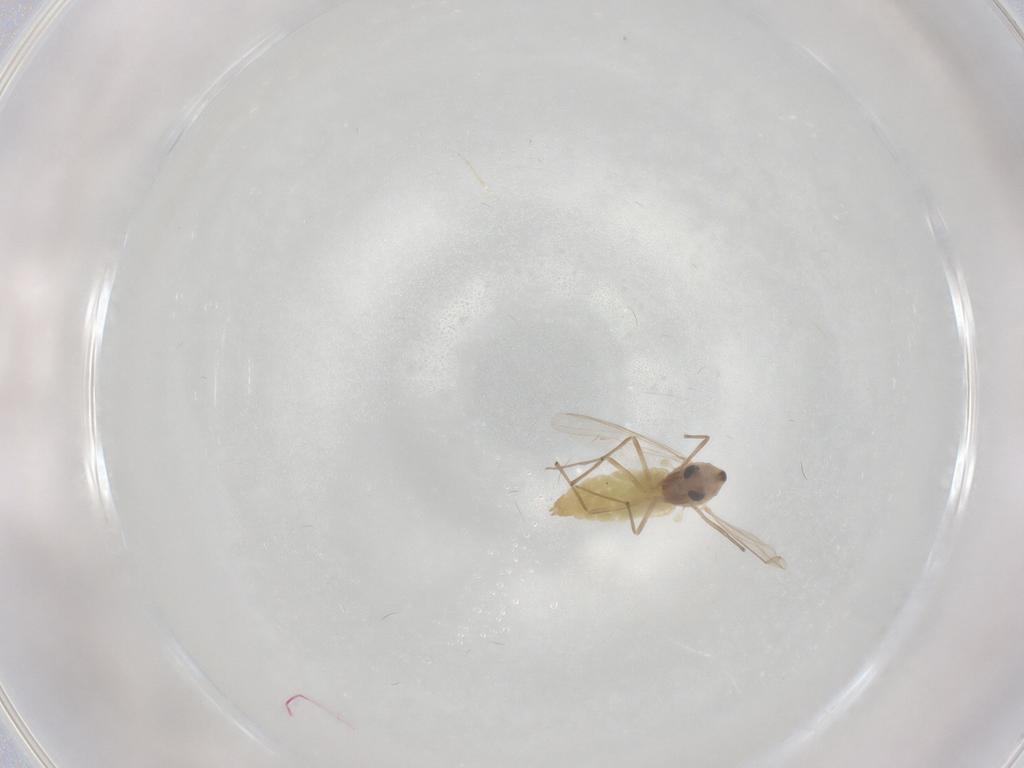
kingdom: Animalia
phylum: Arthropoda
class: Insecta
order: Diptera
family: Chironomidae
